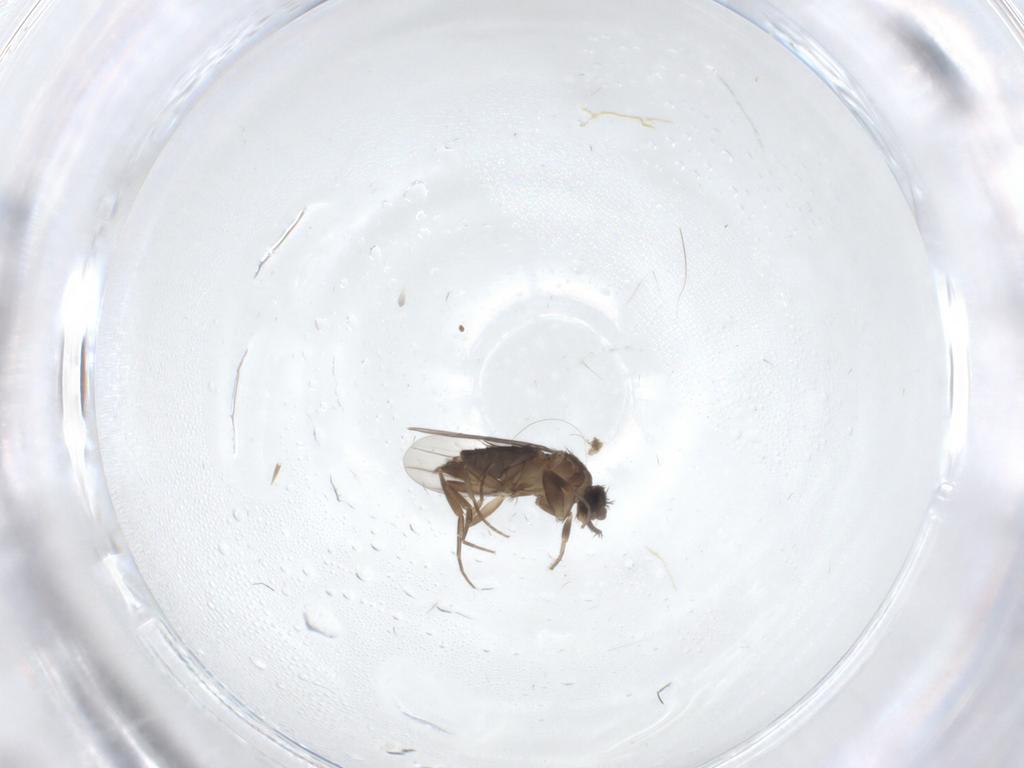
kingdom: Animalia
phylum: Arthropoda
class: Insecta
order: Diptera
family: Phoridae
